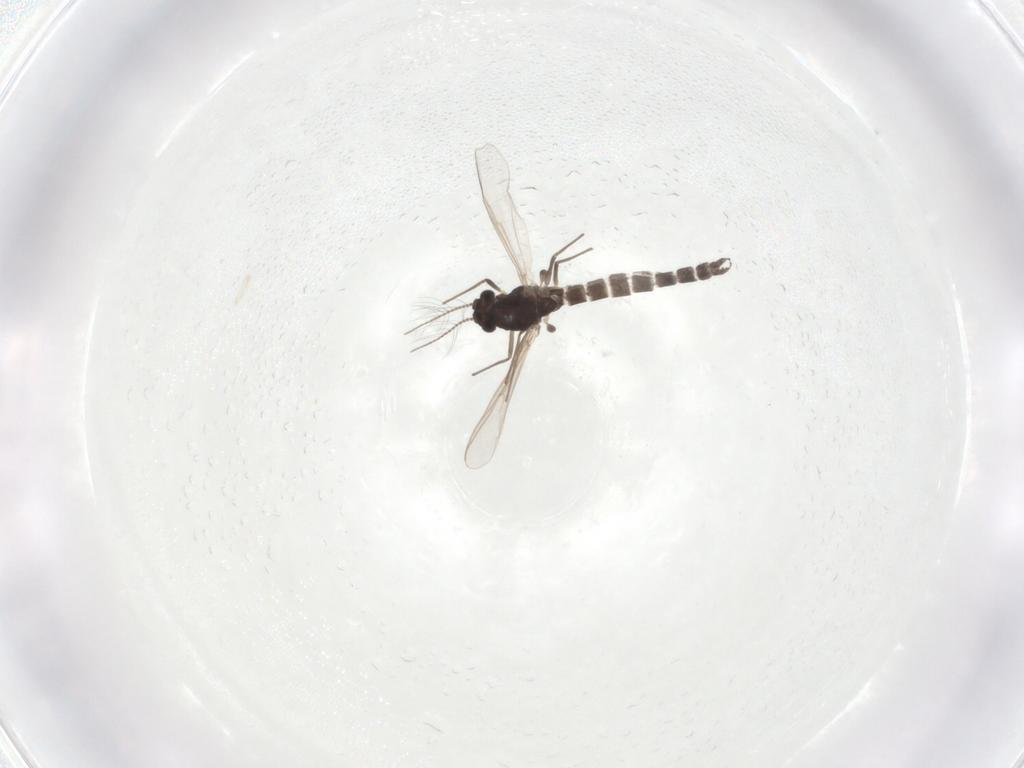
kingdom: Animalia
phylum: Arthropoda
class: Insecta
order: Diptera
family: Chironomidae
